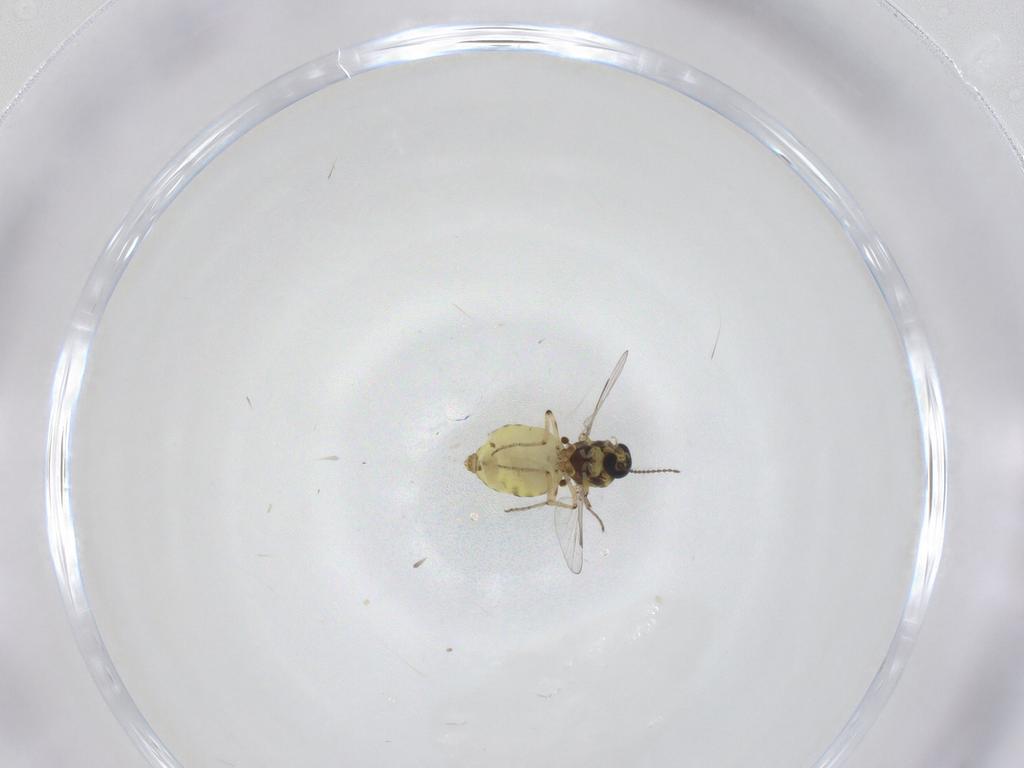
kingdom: Animalia
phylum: Arthropoda
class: Insecta
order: Diptera
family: Ceratopogonidae
